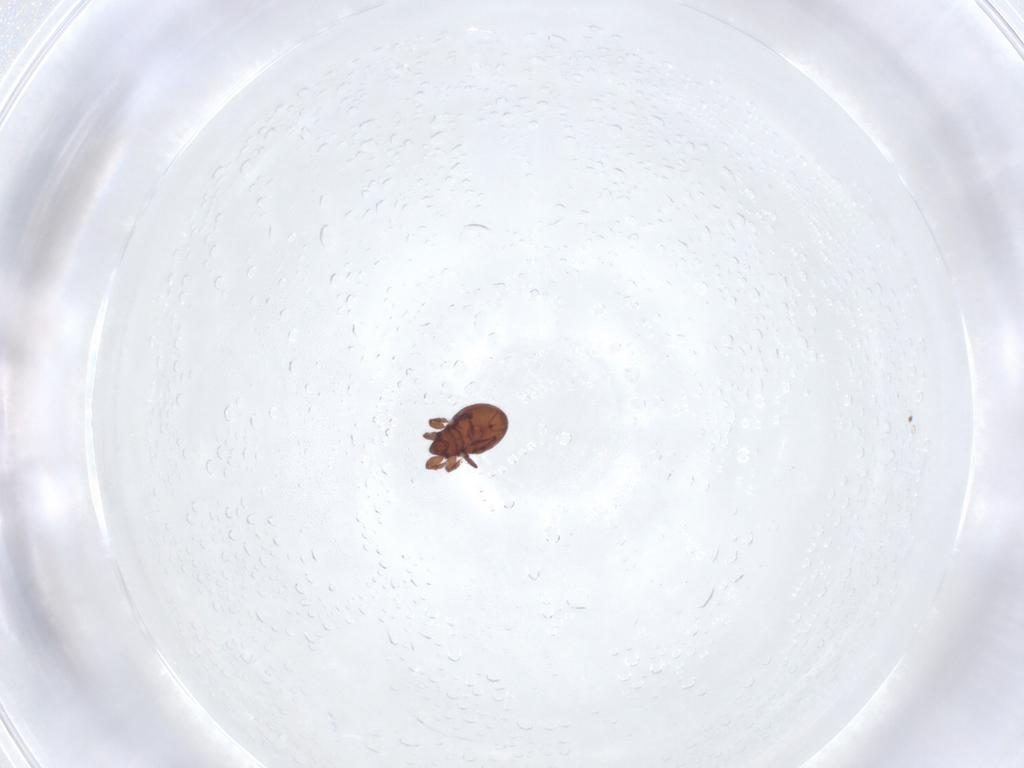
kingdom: Animalia
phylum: Arthropoda
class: Arachnida
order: Sarcoptiformes
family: Eremaeidae
